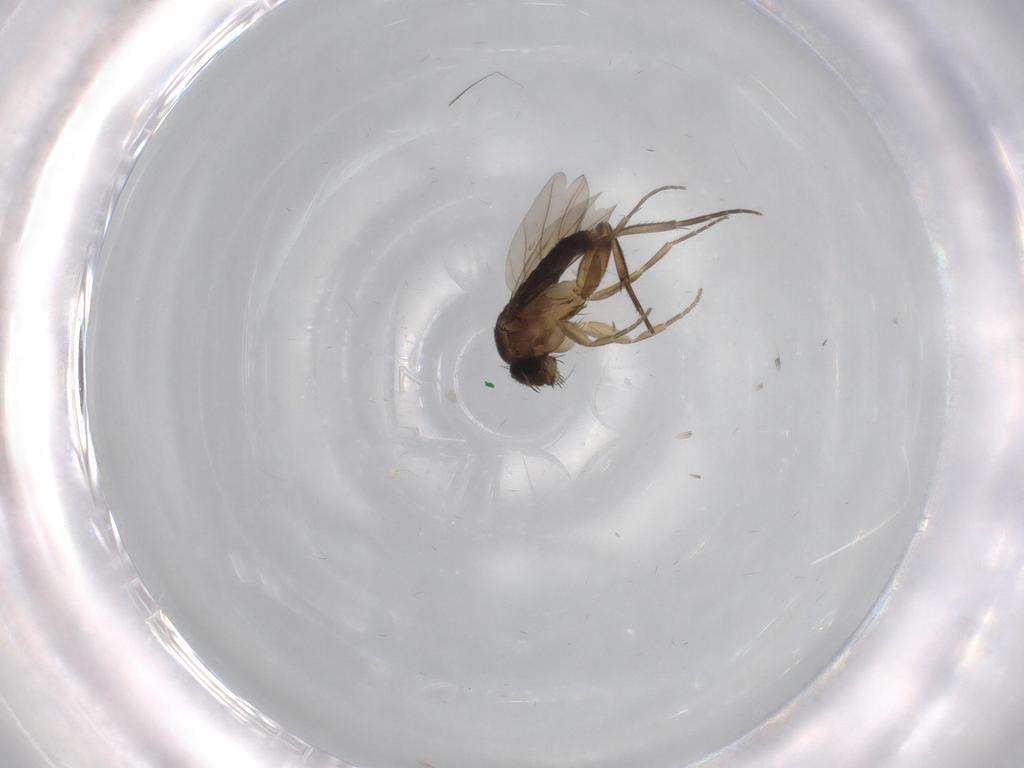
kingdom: Animalia
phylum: Arthropoda
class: Insecta
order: Diptera
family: Phoridae
